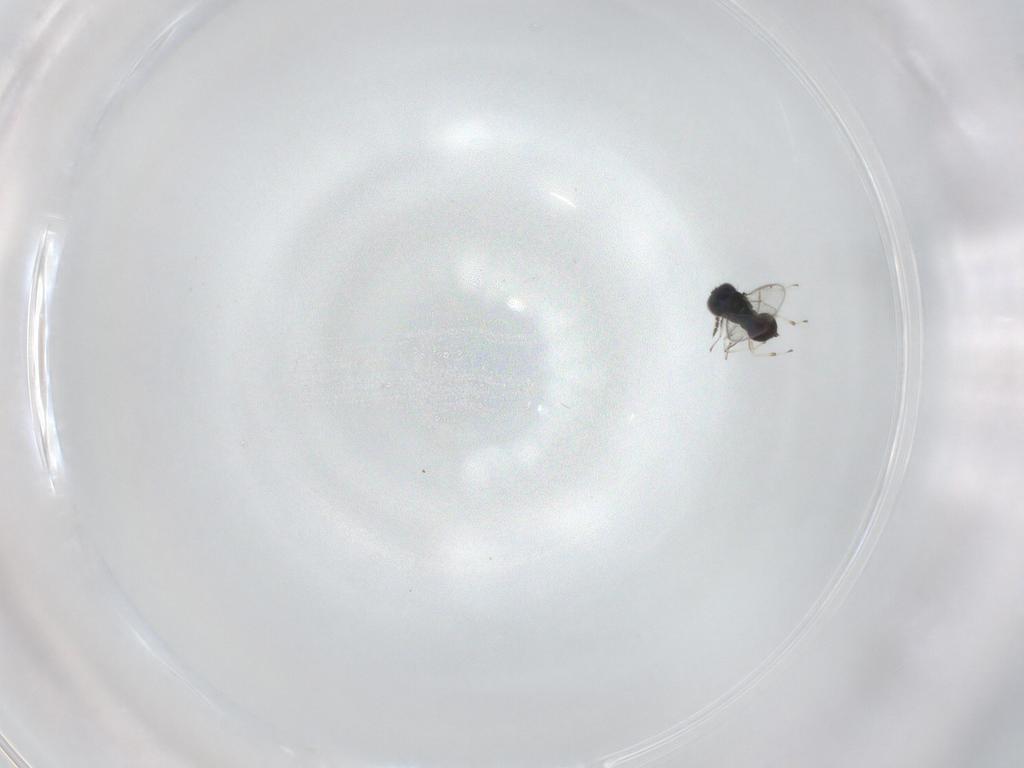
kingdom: Animalia
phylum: Arthropoda
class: Insecta
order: Hymenoptera
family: Eulophidae
